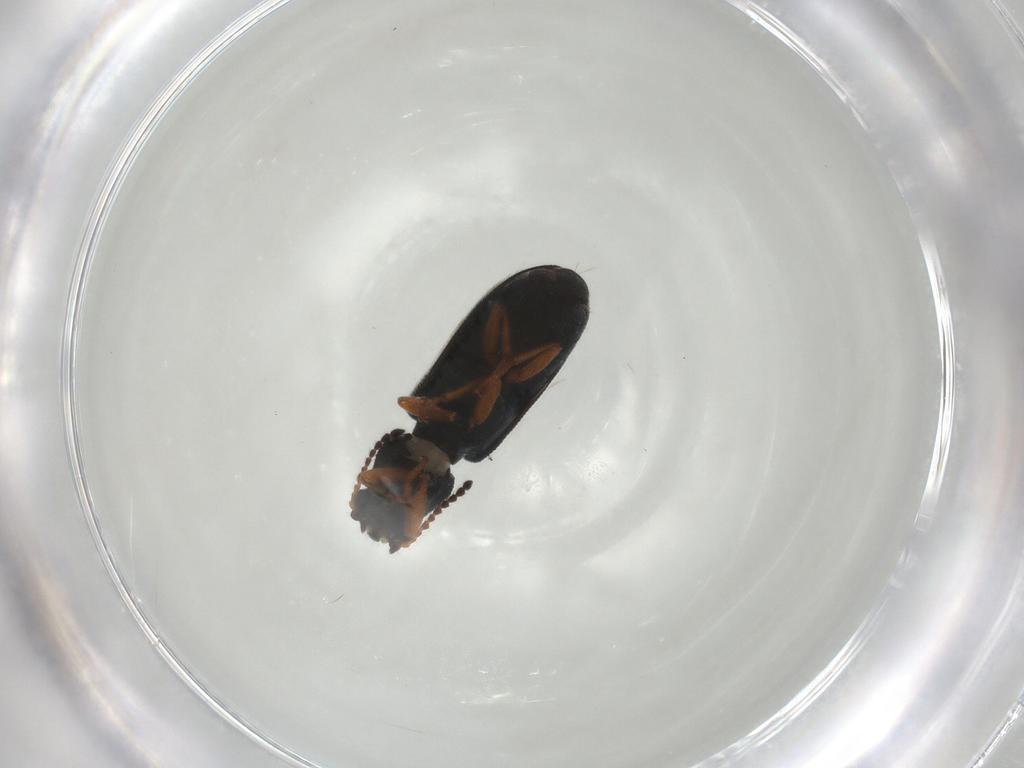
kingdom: Animalia
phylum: Arthropoda
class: Insecta
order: Coleoptera
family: Melyridae
